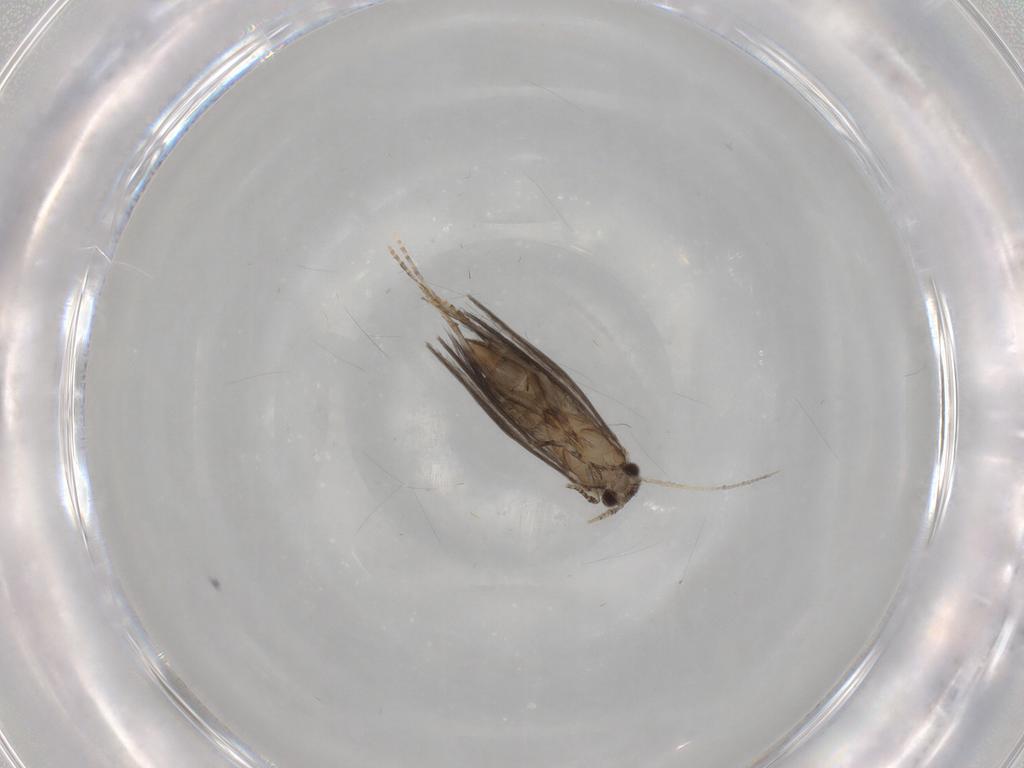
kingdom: Animalia
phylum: Arthropoda
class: Insecta
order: Trichoptera
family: Hydroptilidae
